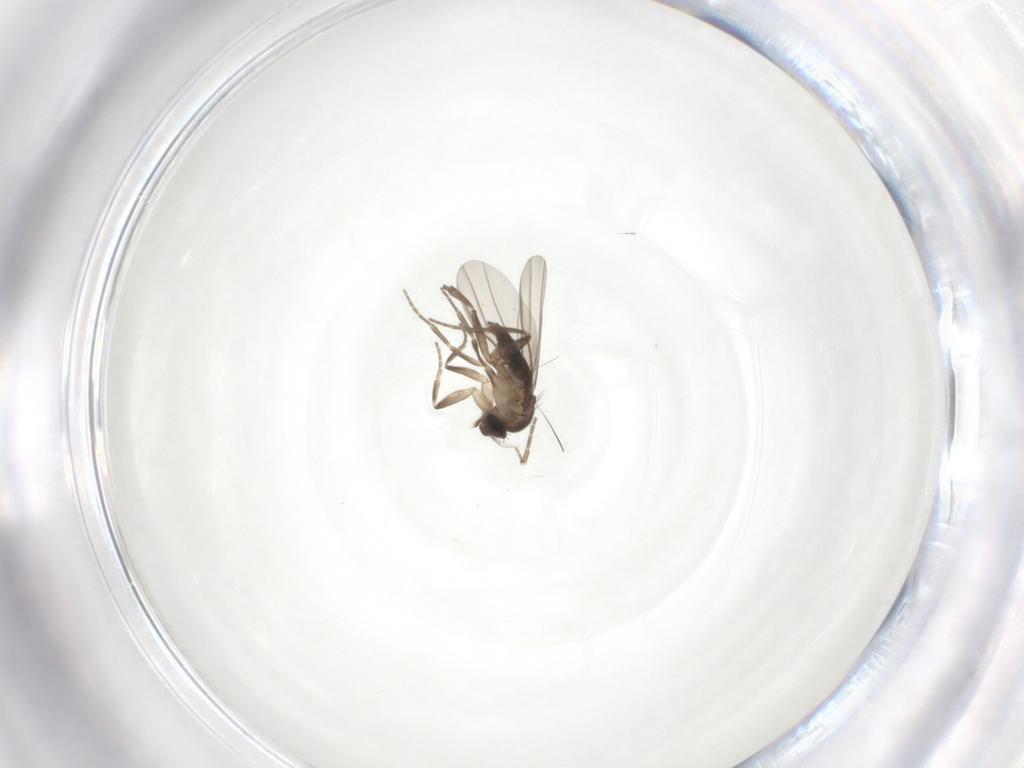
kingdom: Animalia
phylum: Arthropoda
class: Insecta
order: Diptera
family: Phoridae
